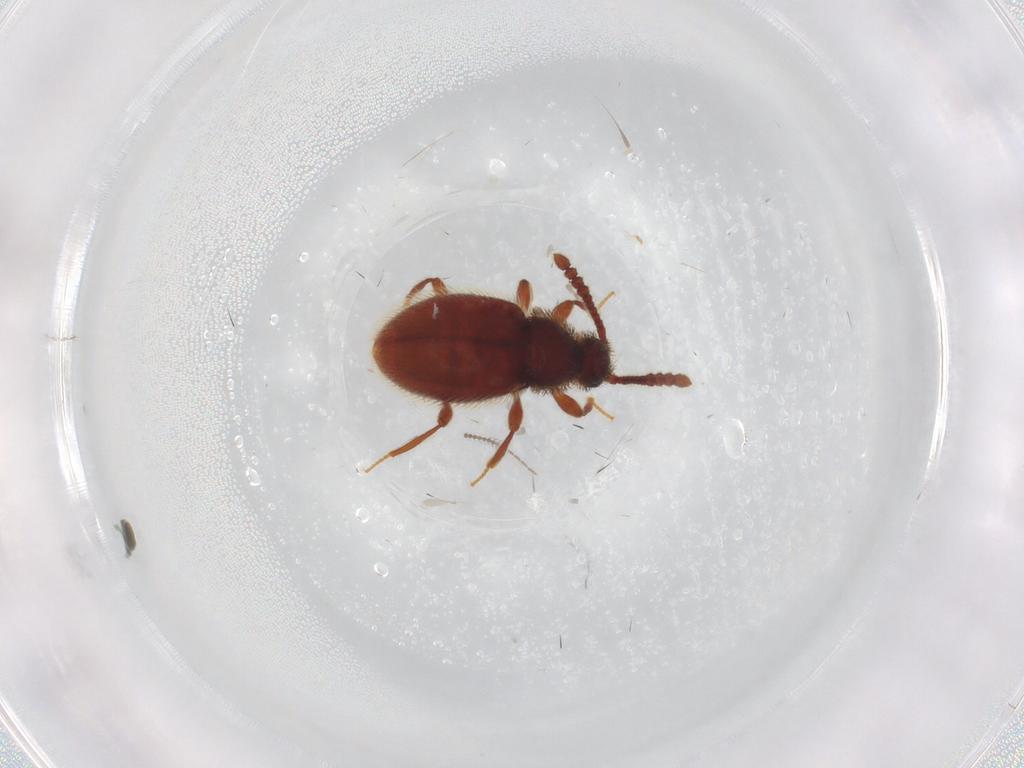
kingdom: Animalia
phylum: Arthropoda
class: Insecta
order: Coleoptera
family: Staphylinidae
